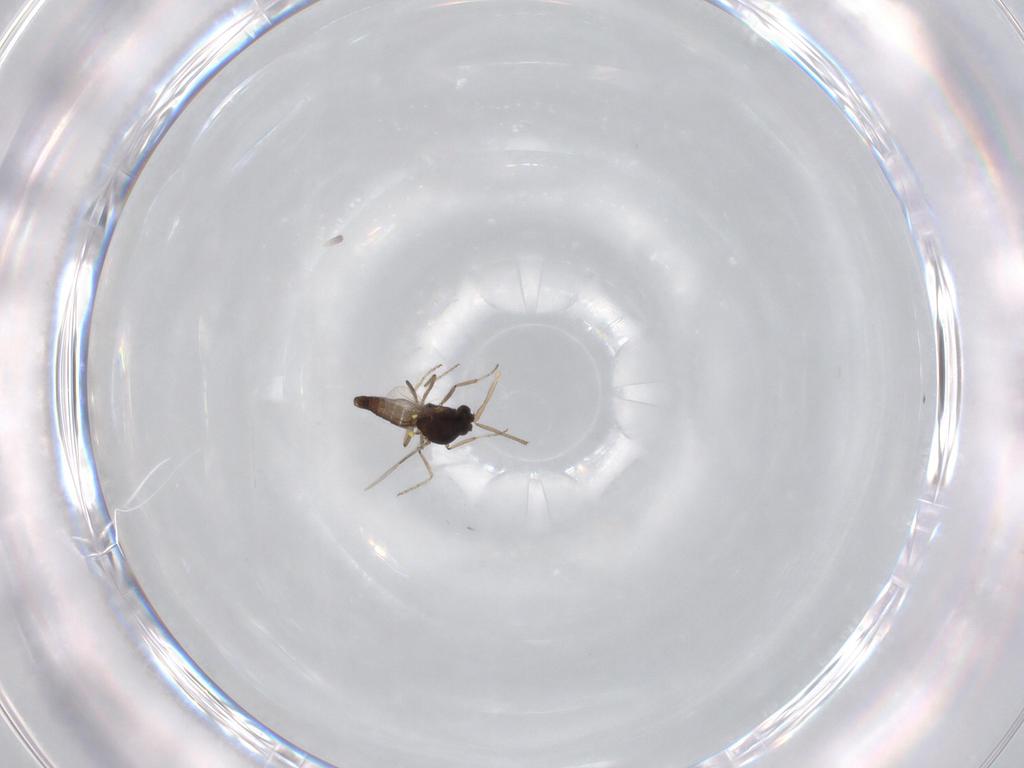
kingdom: Animalia
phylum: Arthropoda
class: Insecta
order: Diptera
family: Ceratopogonidae
